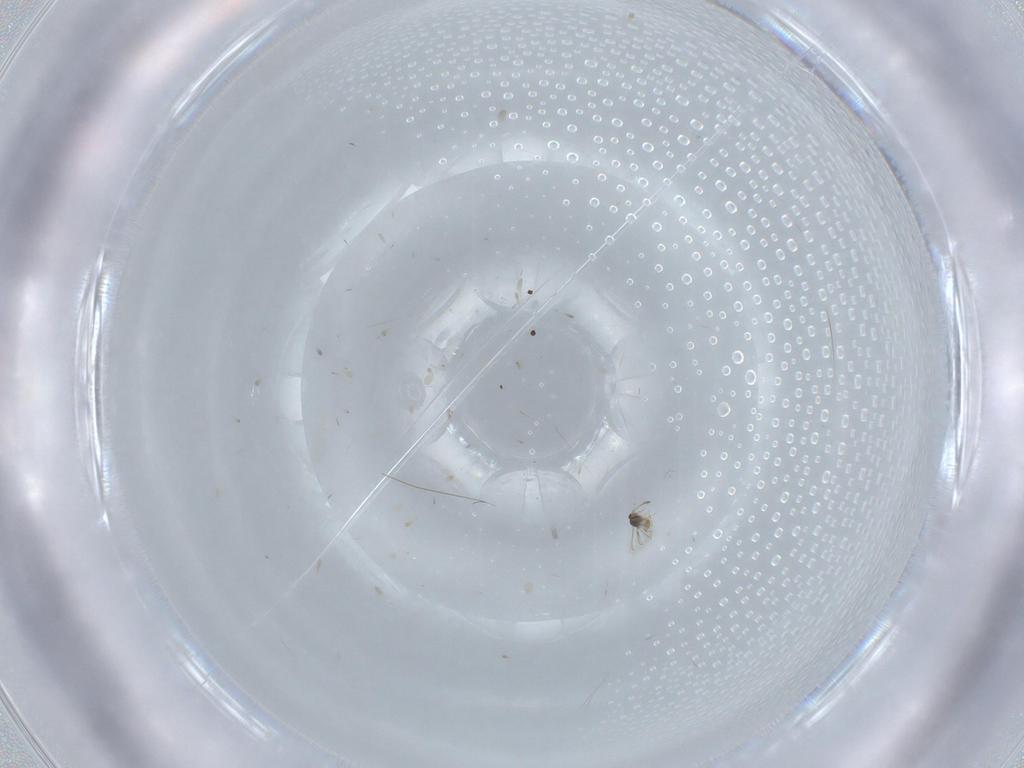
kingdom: Animalia
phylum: Arthropoda
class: Insecta
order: Hymenoptera
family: Mymaridae
